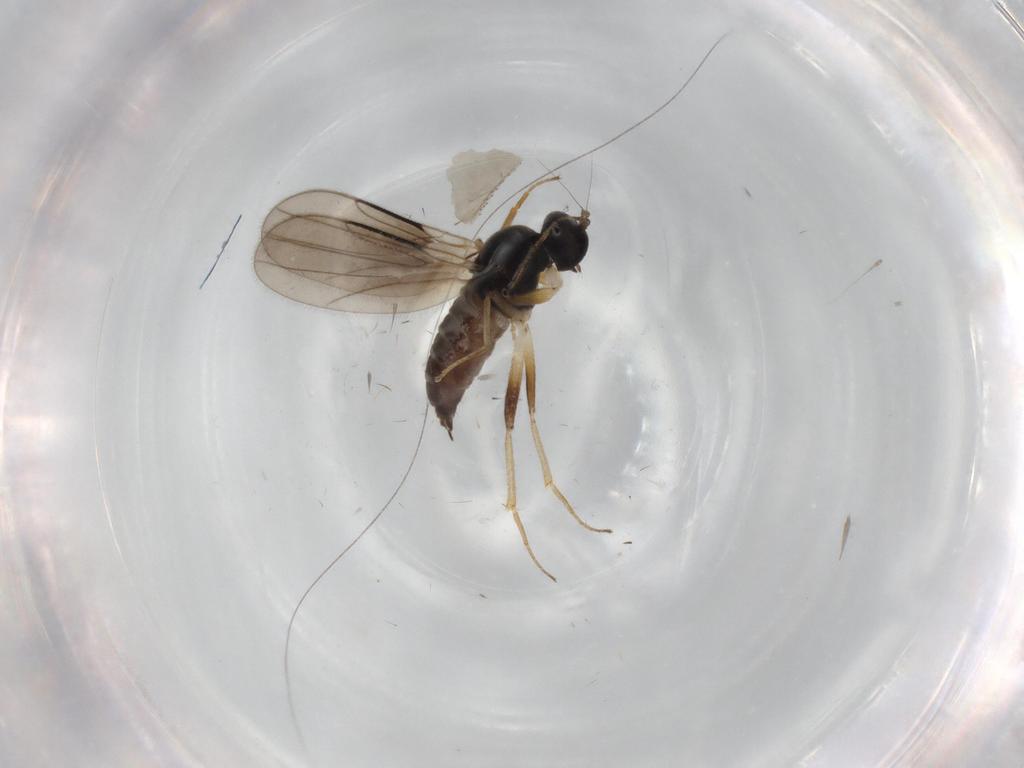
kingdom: Animalia
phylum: Arthropoda
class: Insecta
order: Diptera
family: Hybotidae
